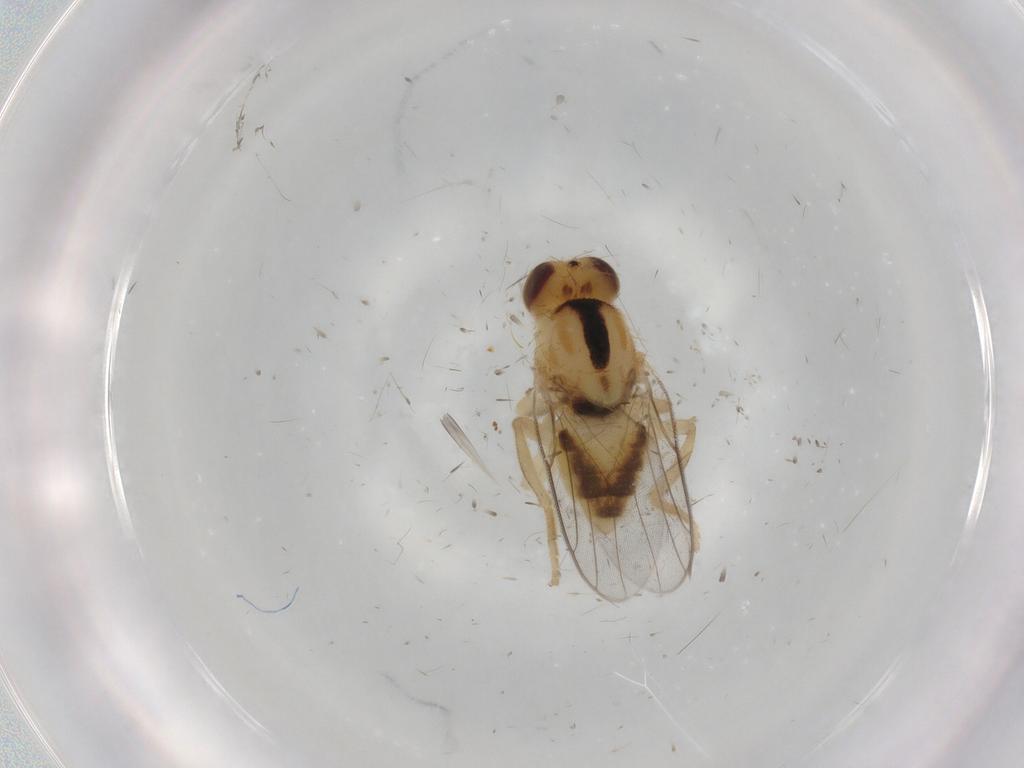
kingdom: Animalia
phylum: Arthropoda
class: Insecta
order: Diptera
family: Chloropidae
